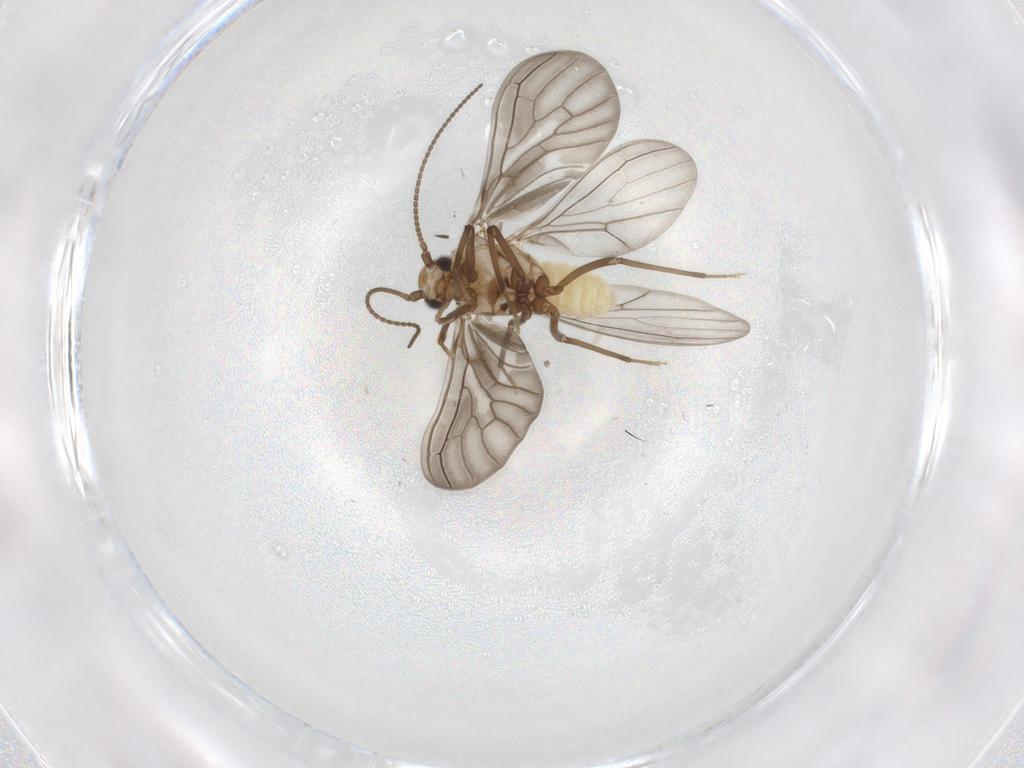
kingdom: Animalia
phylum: Arthropoda
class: Insecta
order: Neuroptera
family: Coniopterygidae
